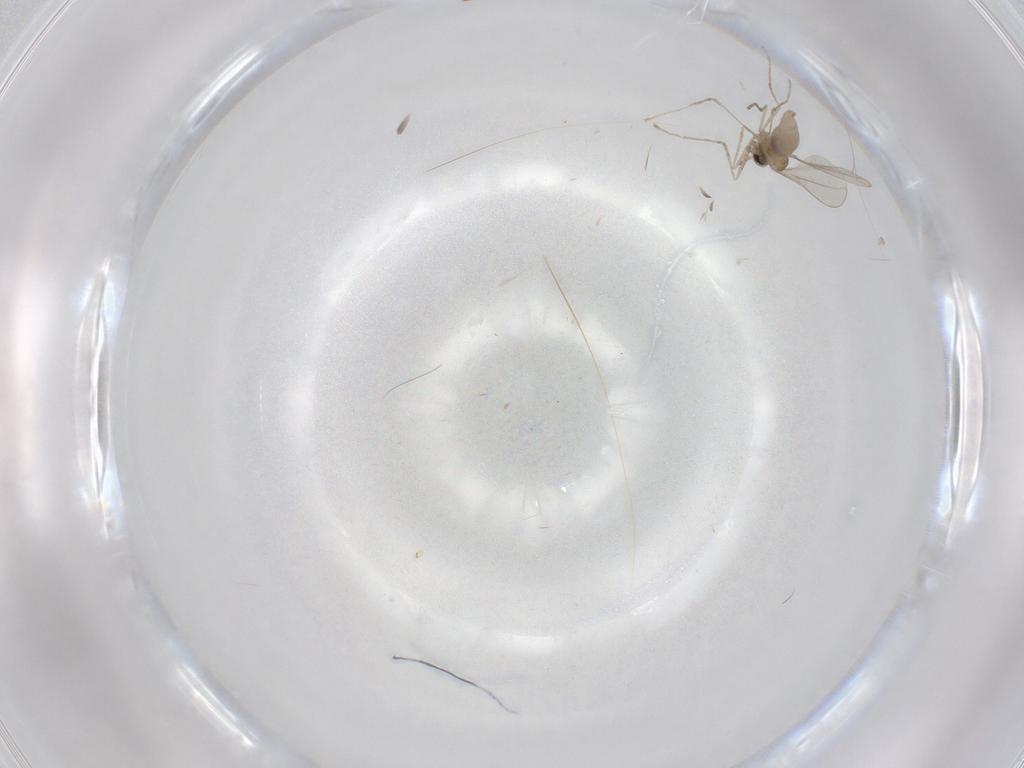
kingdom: Animalia
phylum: Arthropoda
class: Insecta
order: Diptera
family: Cecidomyiidae
